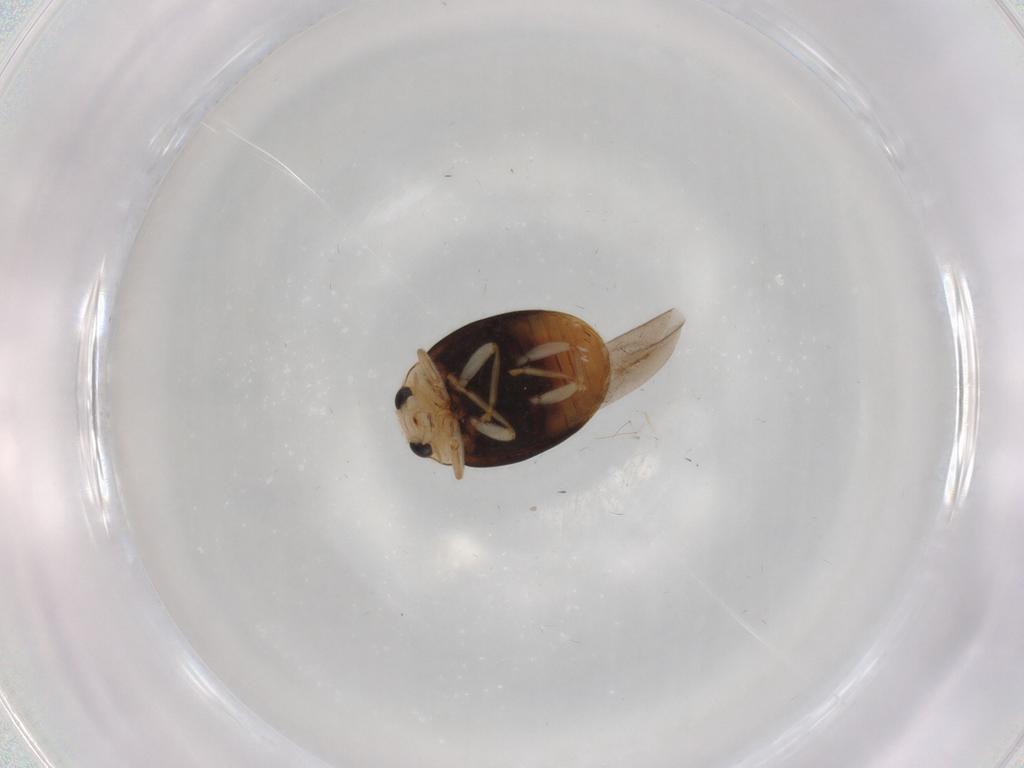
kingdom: Animalia
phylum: Arthropoda
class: Insecta
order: Coleoptera
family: Coccinellidae
